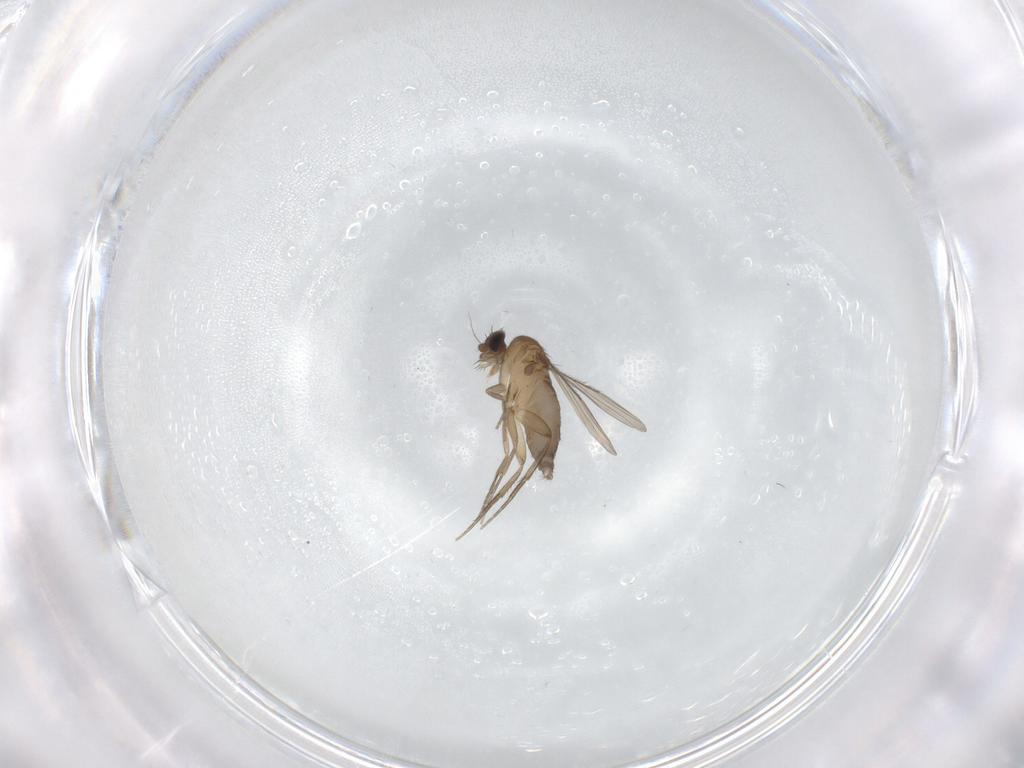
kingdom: Animalia
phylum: Arthropoda
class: Insecta
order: Diptera
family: Phoridae
